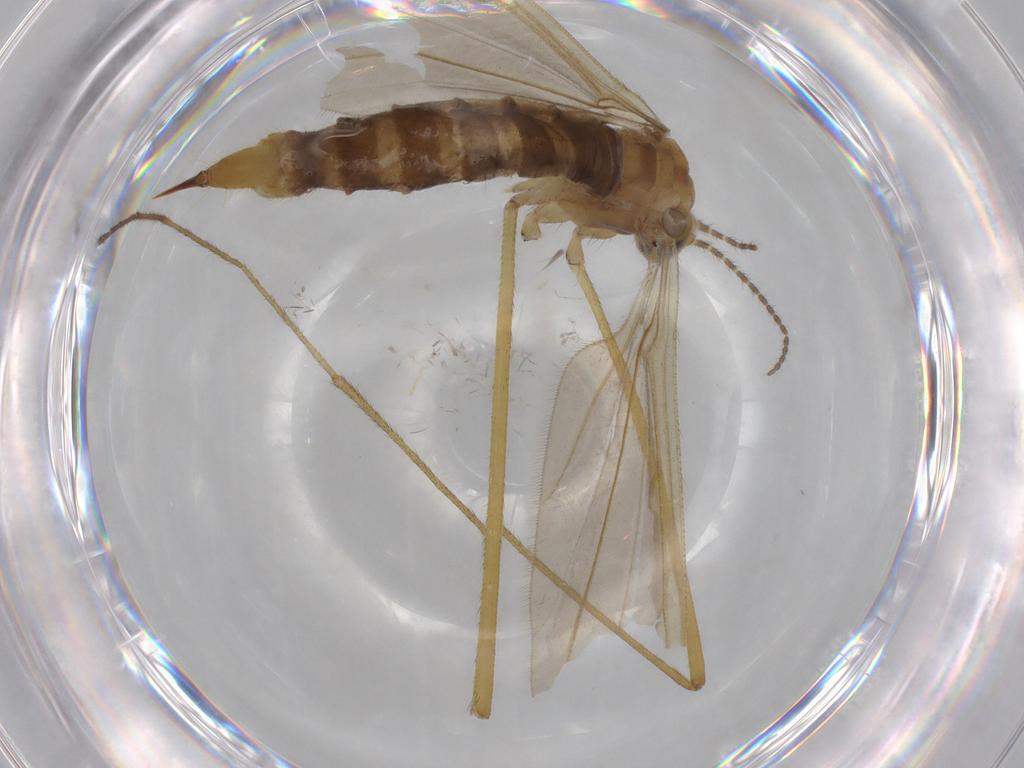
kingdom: Animalia
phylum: Arthropoda
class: Insecta
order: Diptera
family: Limoniidae
